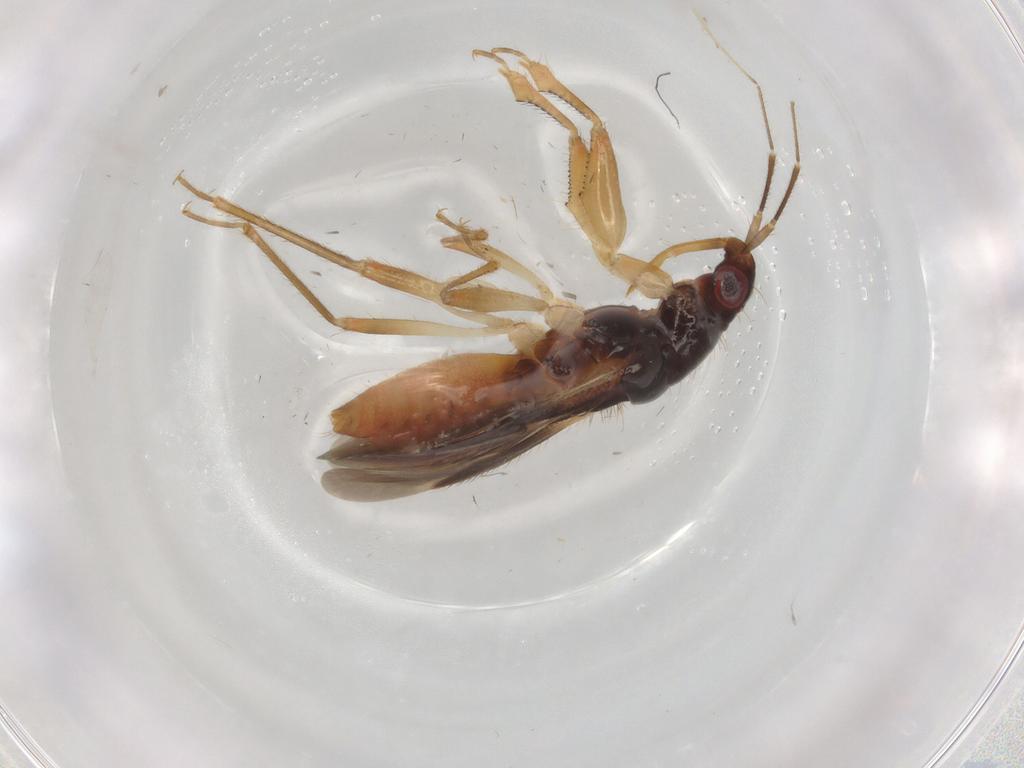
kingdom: Animalia
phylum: Arthropoda
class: Insecta
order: Hemiptera
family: Nabidae
